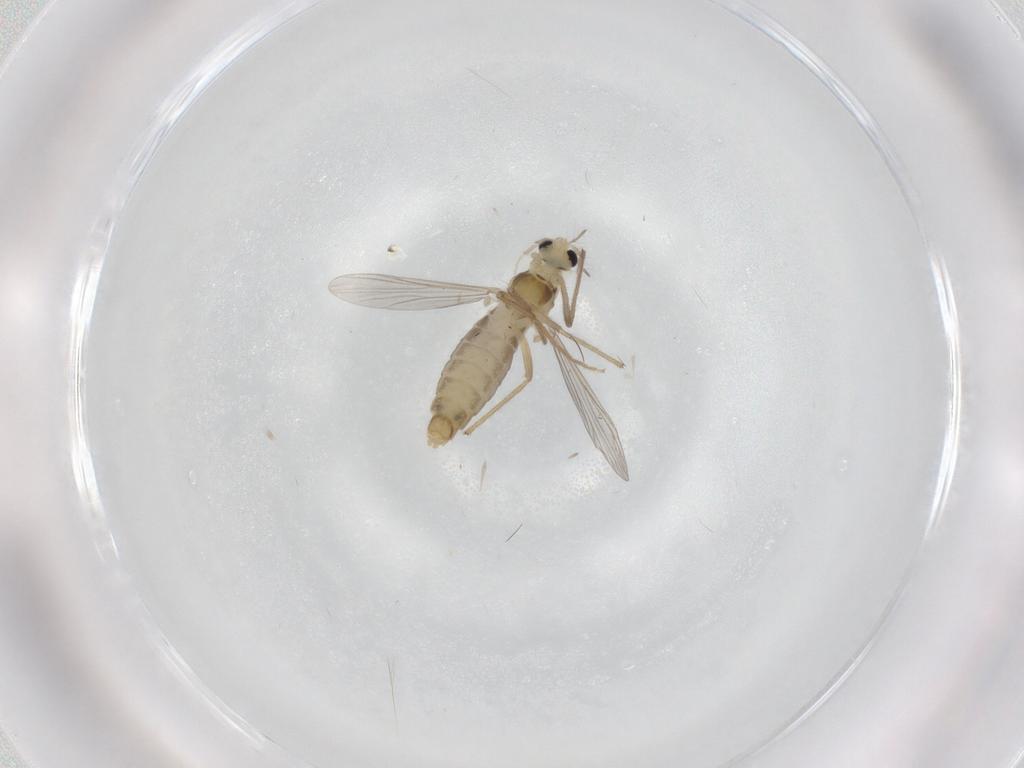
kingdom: Animalia
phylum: Arthropoda
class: Insecta
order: Diptera
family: Chironomidae
